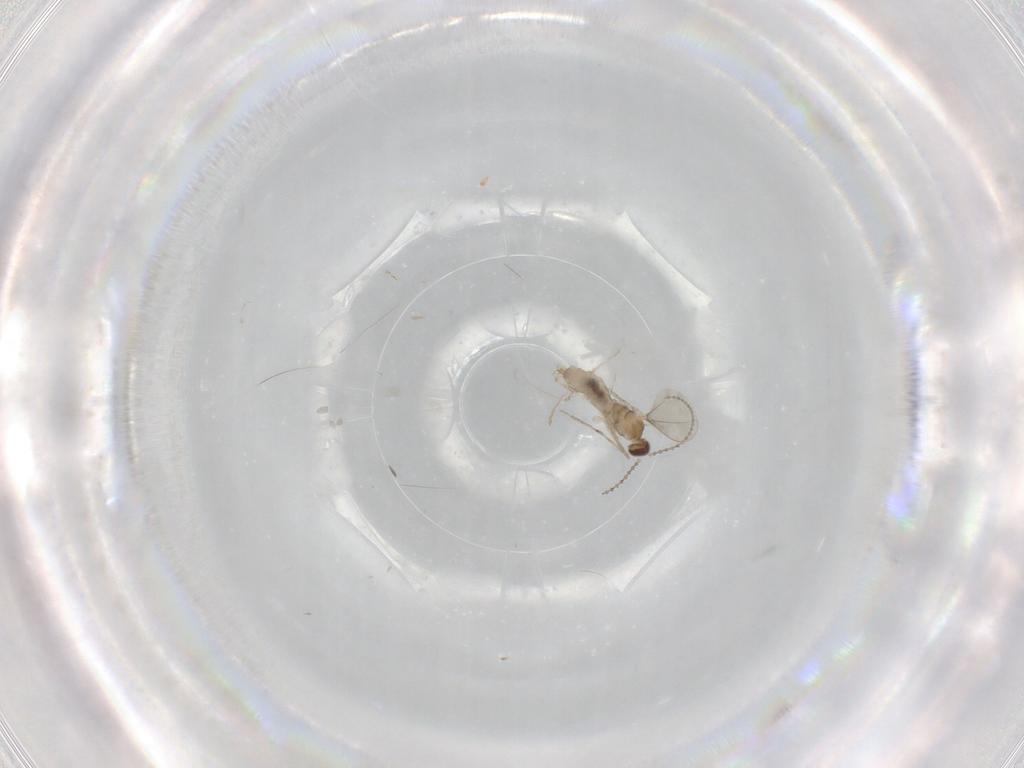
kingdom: Animalia
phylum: Arthropoda
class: Insecta
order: Diptera
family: Cecidomyiidae
